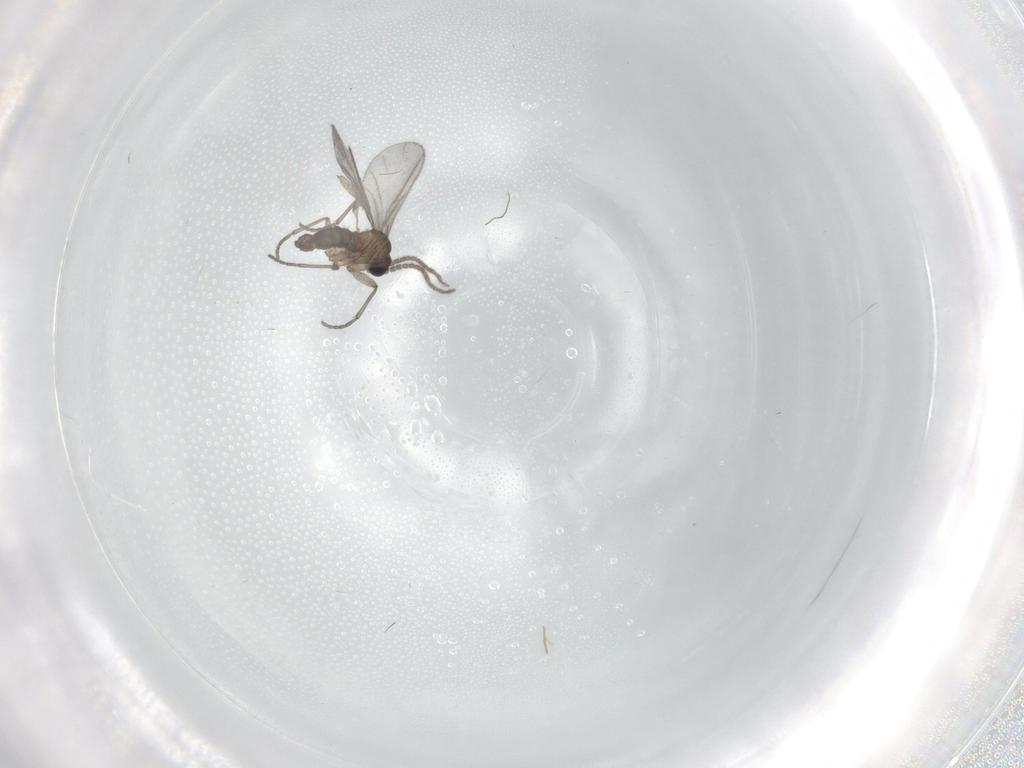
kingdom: Animalia
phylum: Arthropoda
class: Insecta
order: Diptera
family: Sciaridae
